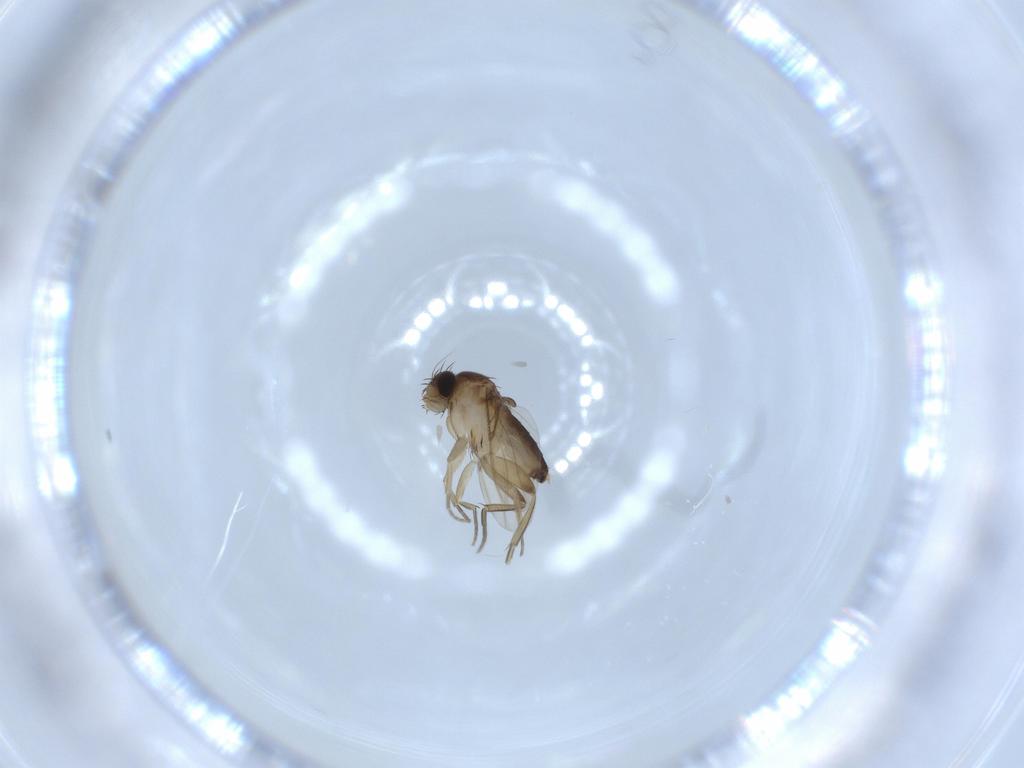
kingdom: Animalia
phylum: Arthropoda
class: Insecta
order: Diptera
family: Phoridae
